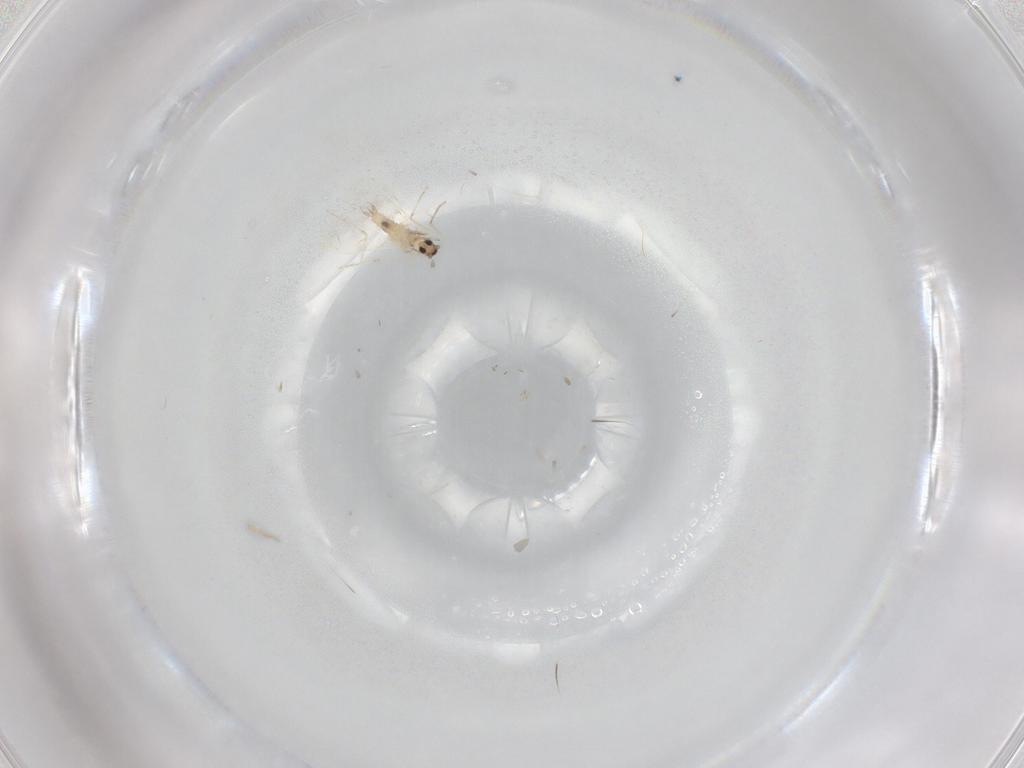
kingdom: Animalia
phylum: Arthropoda
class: Insecta
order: Diptera
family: Cecidomyiidae
